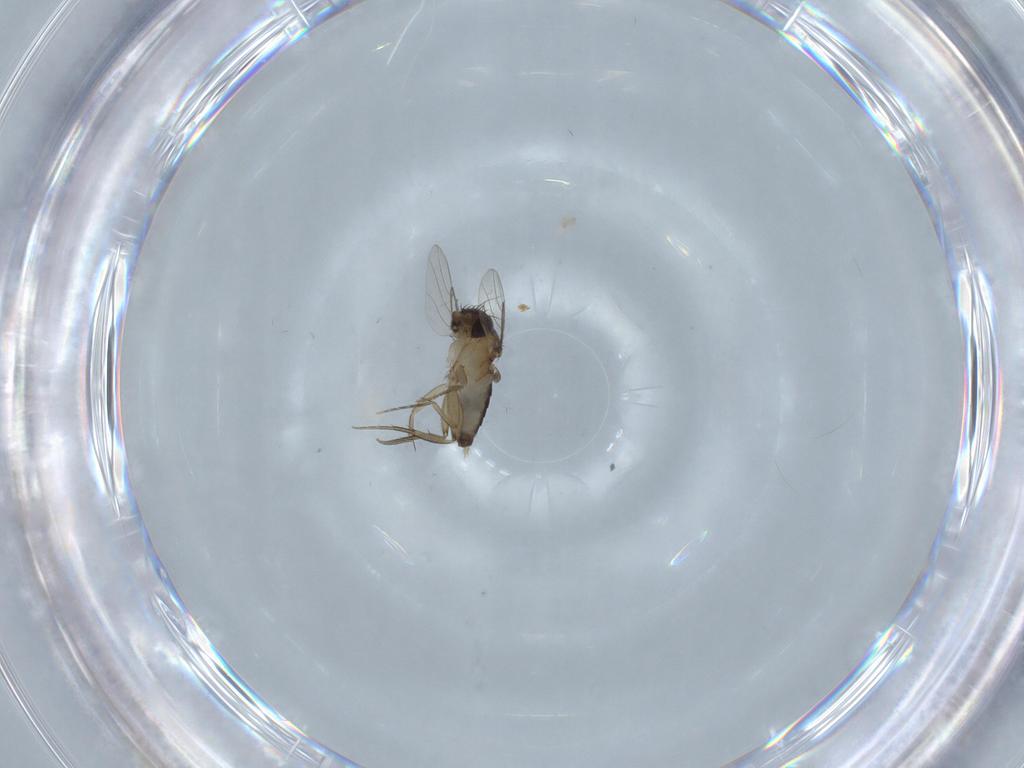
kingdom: Animalia
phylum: Arthropoda
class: Insecta
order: Diptera
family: Phoridae
